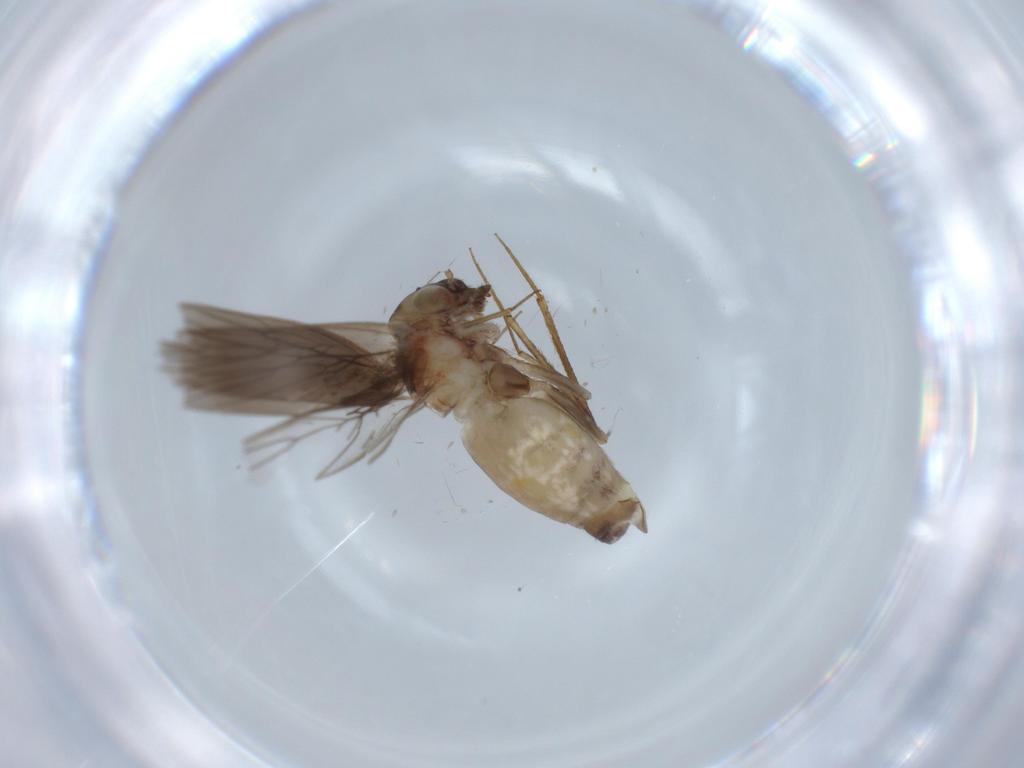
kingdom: Animalia
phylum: Arthropoda
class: Insecta
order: Psocodea
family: Lepidopsocidae
